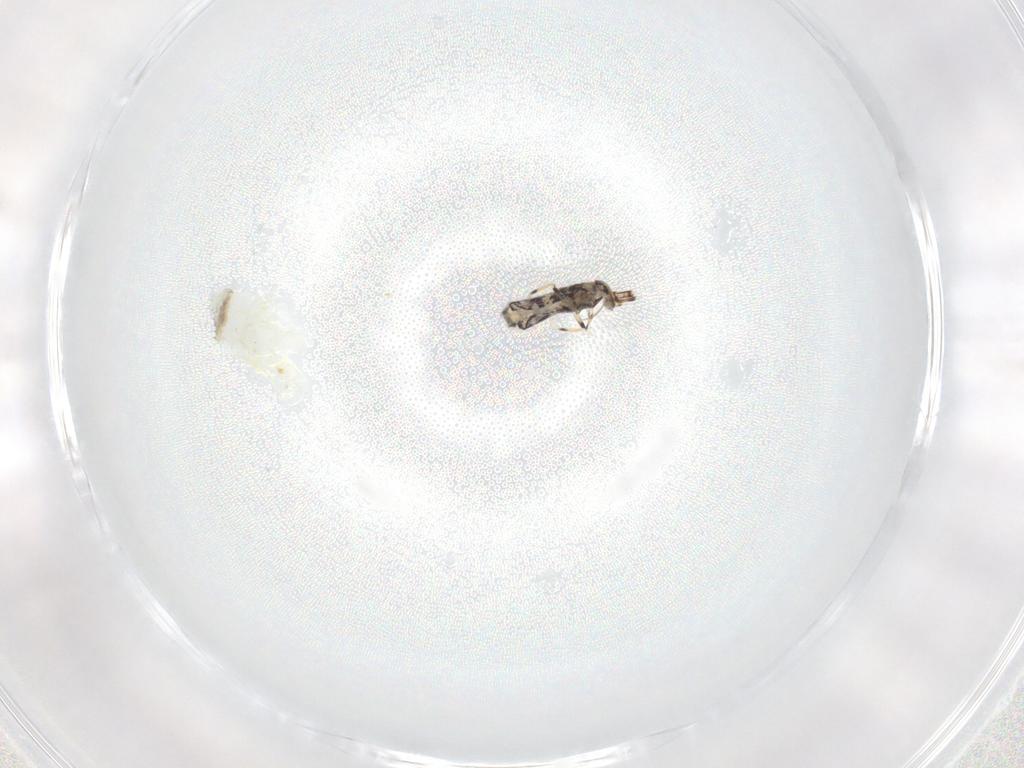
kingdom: Animalia
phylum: Arthropoda
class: Collembola
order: Entomobryomorpha
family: Entomobryidae
